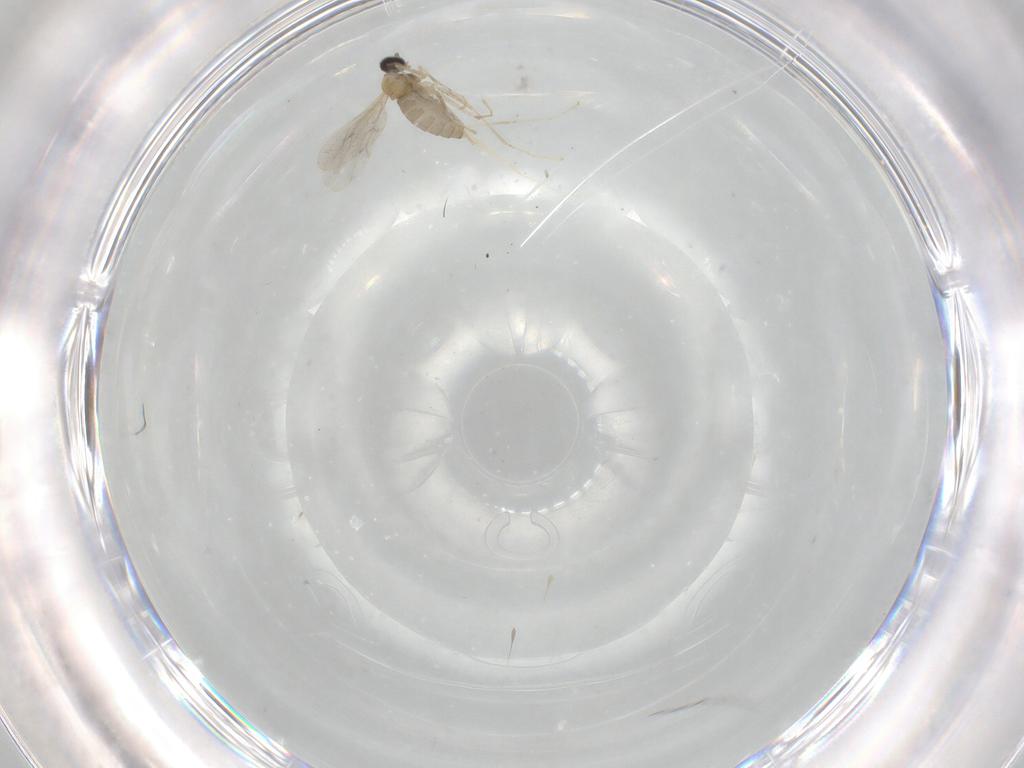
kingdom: Animalia
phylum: Arthropoda
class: Insecta
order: Diptera
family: Cecidomyiidae
